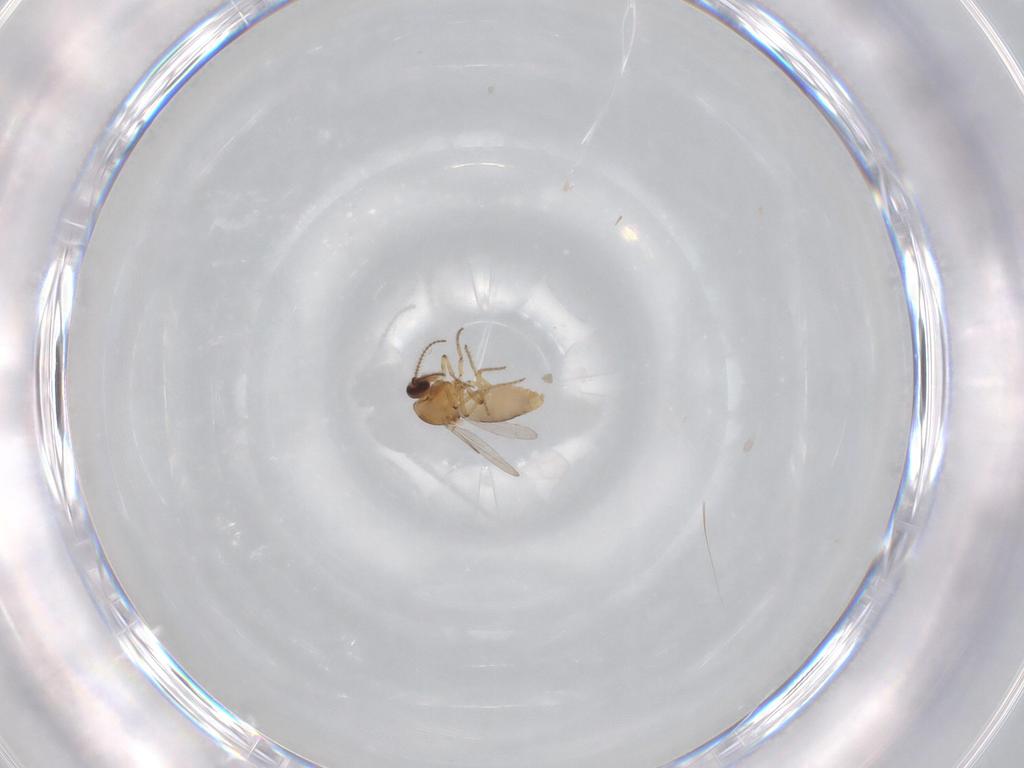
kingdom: Animalia
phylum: Arthropoda
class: Insecta
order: Diptera
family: Ceratopogonidae
